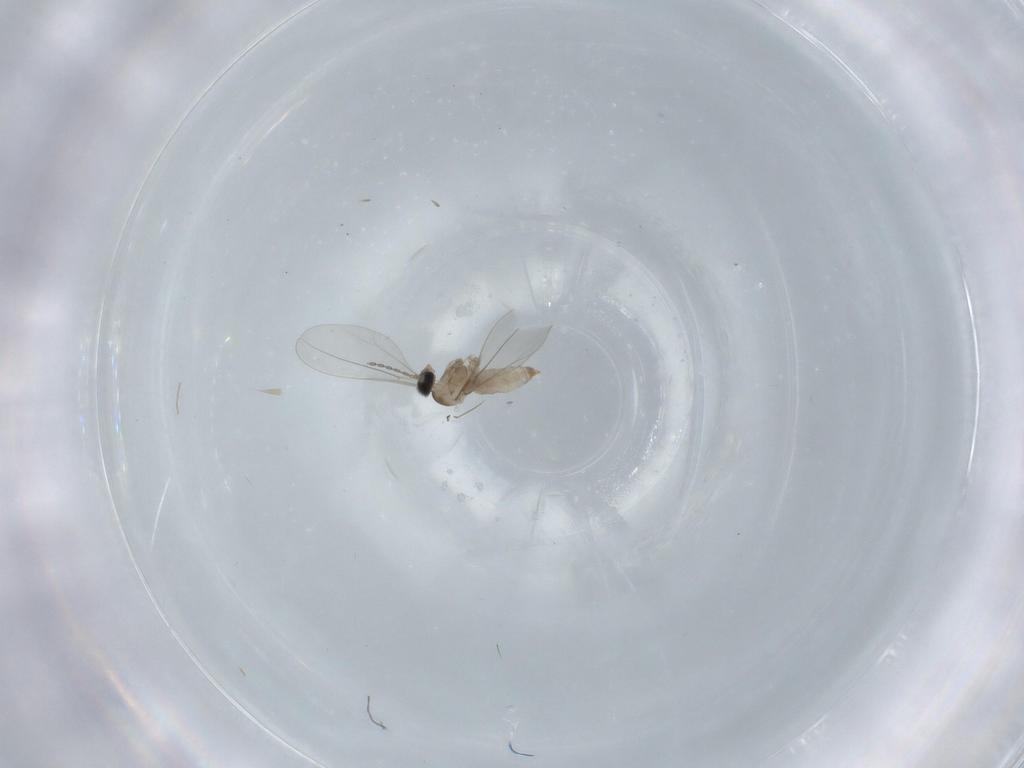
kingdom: Animalia
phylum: Arthropoda
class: Insecta
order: Diptera
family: Cecidomyiidae
